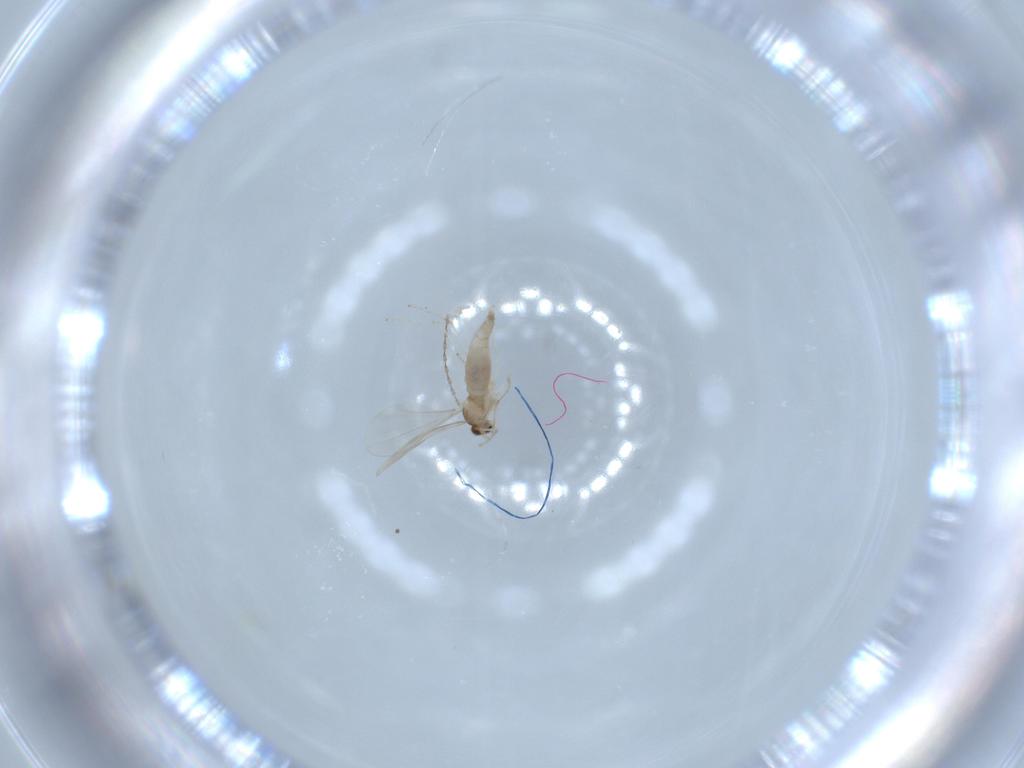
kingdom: Animalia
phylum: Arthropoda
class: Insecta
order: Diptera
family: Cecidomyiidae
